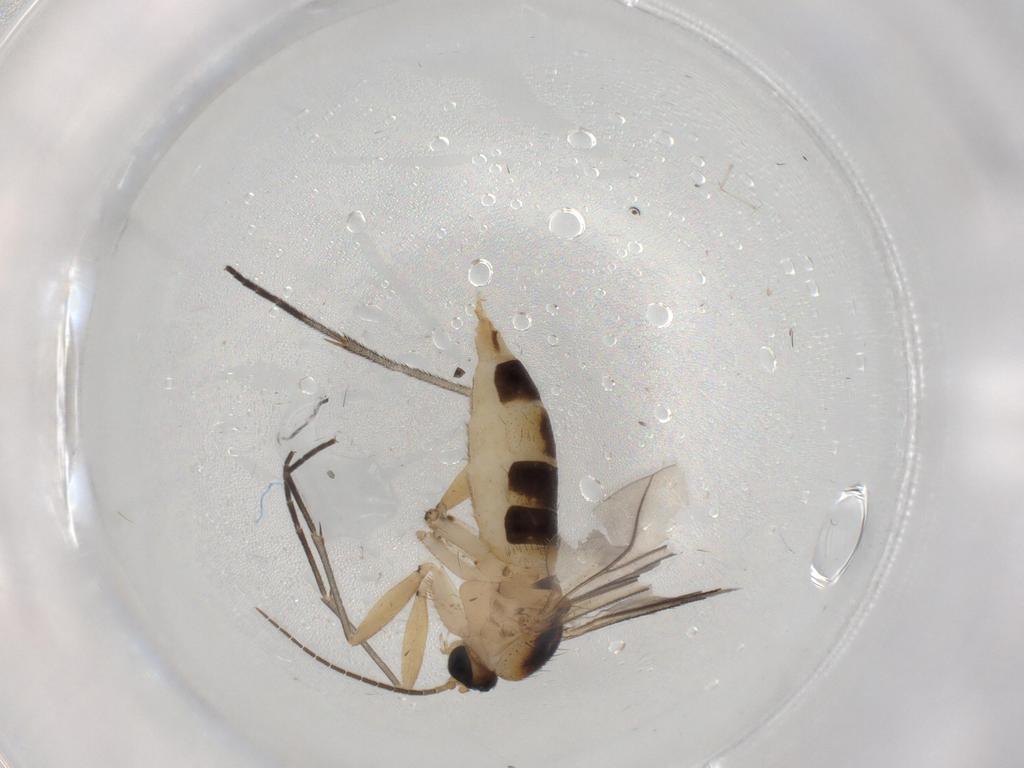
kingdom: Animalia
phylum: Arthropoda
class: Insecta
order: Diptera
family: Sciaridae
